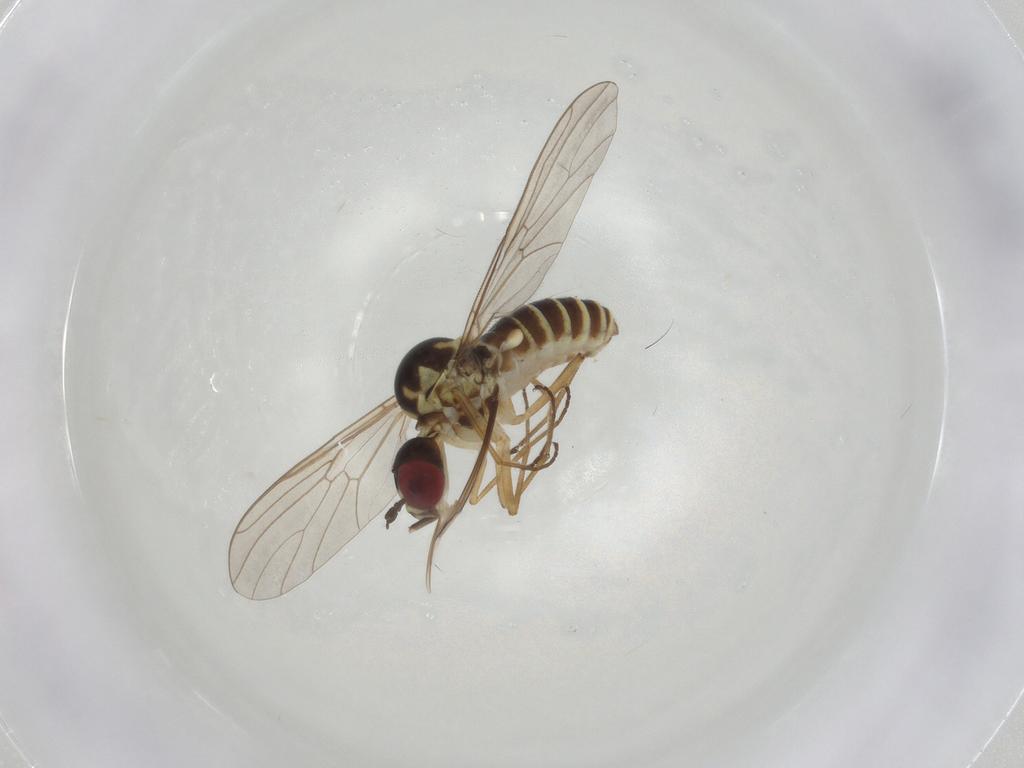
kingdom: Animalia
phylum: Arthropoda
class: Insecta
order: Diptera
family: Mythicomyiidae
